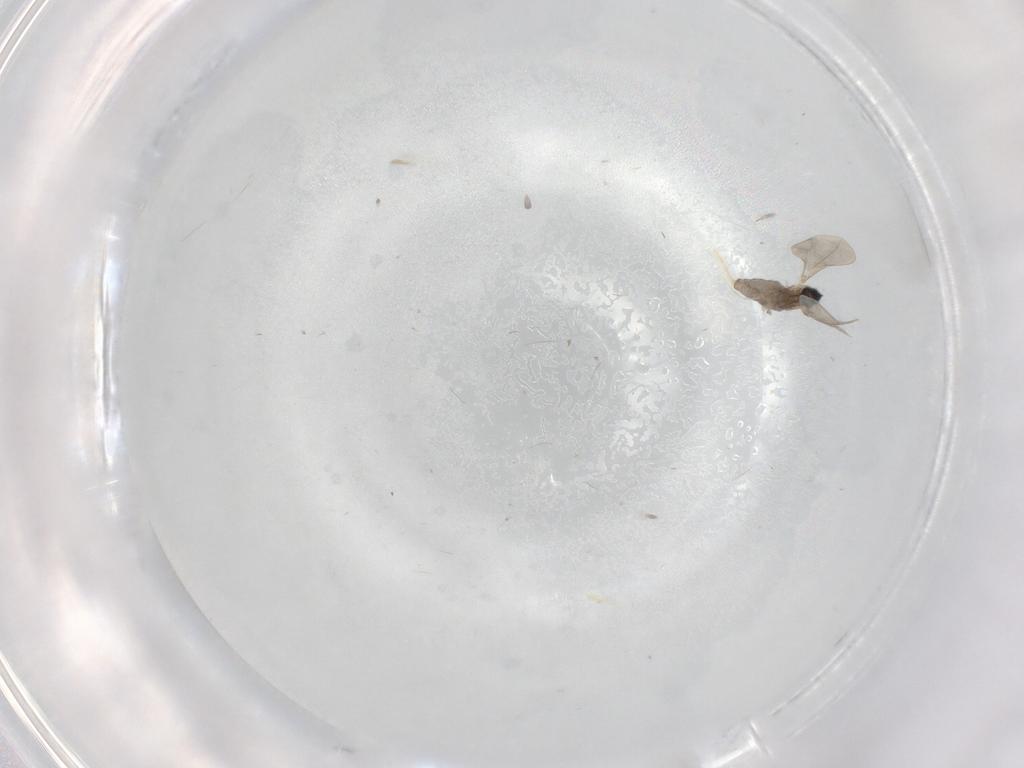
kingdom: Animalia
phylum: Arthropoda
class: Insecta
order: Diptera
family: Cecidomyiidae
